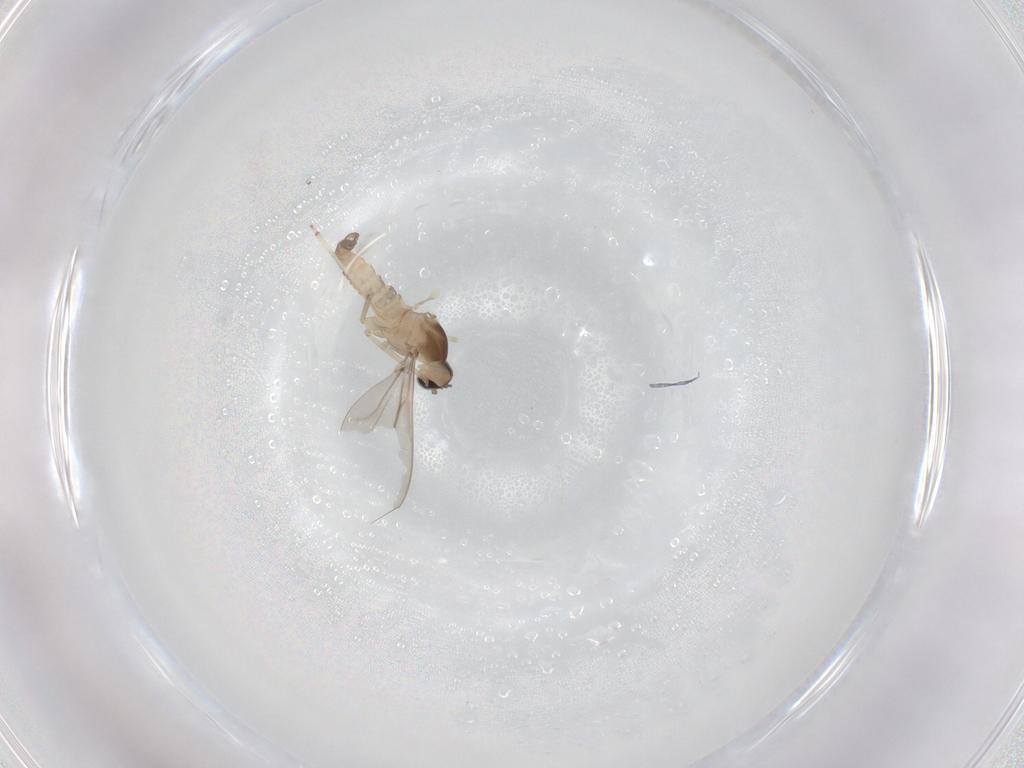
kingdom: Animalia
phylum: Arthropoda
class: Insecta
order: Diptera
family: Cecidomyiidae
